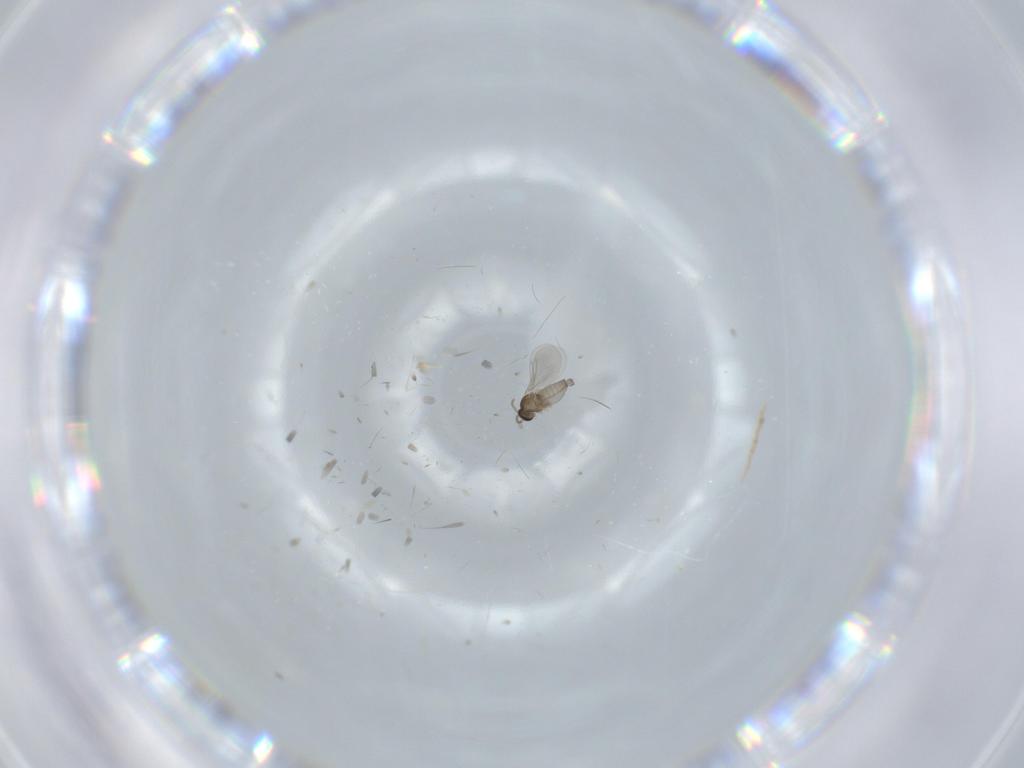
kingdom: Animalia
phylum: Arthropoda
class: Insecta
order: Diptera
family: Cecidomyiidae
